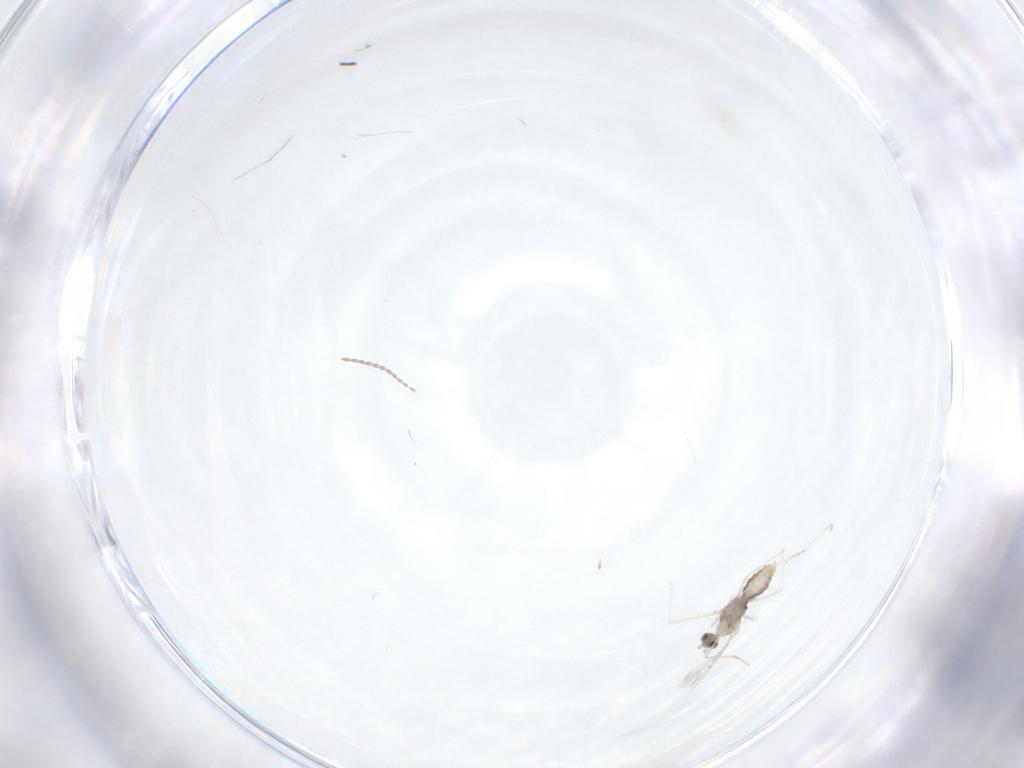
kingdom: Animalia
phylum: Arthropoda
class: Insecta
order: Diptera
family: Cecidomyiidae
